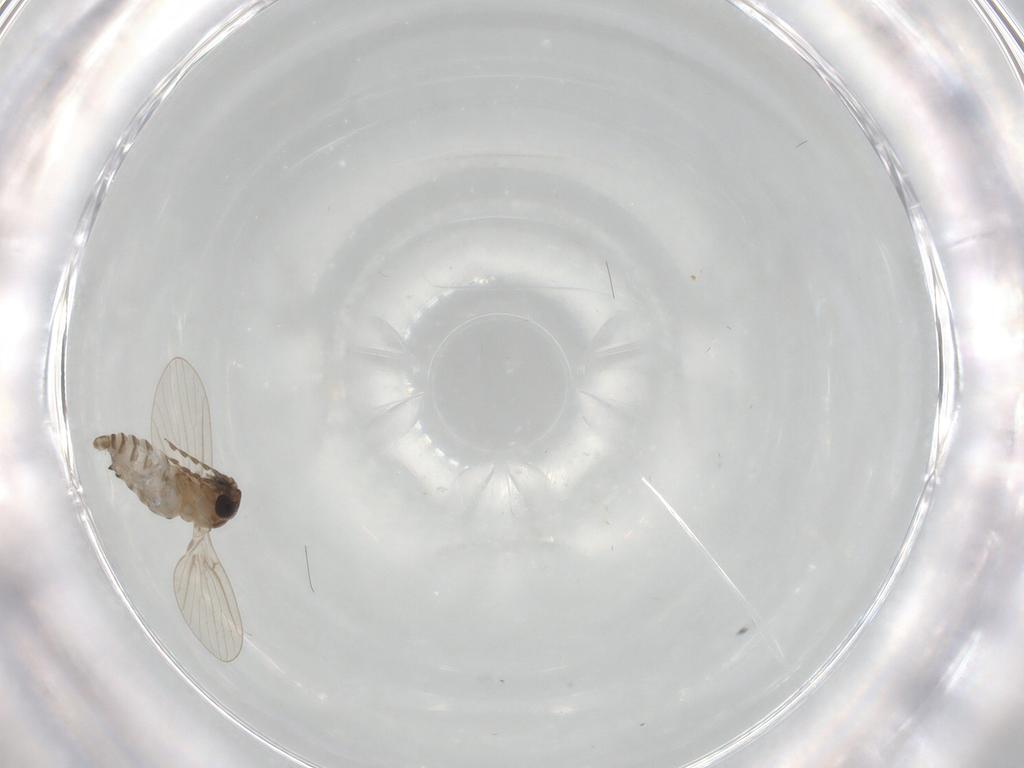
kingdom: Animalia
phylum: Arthropoda
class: Insecta
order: Diptera
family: Psychodidae
